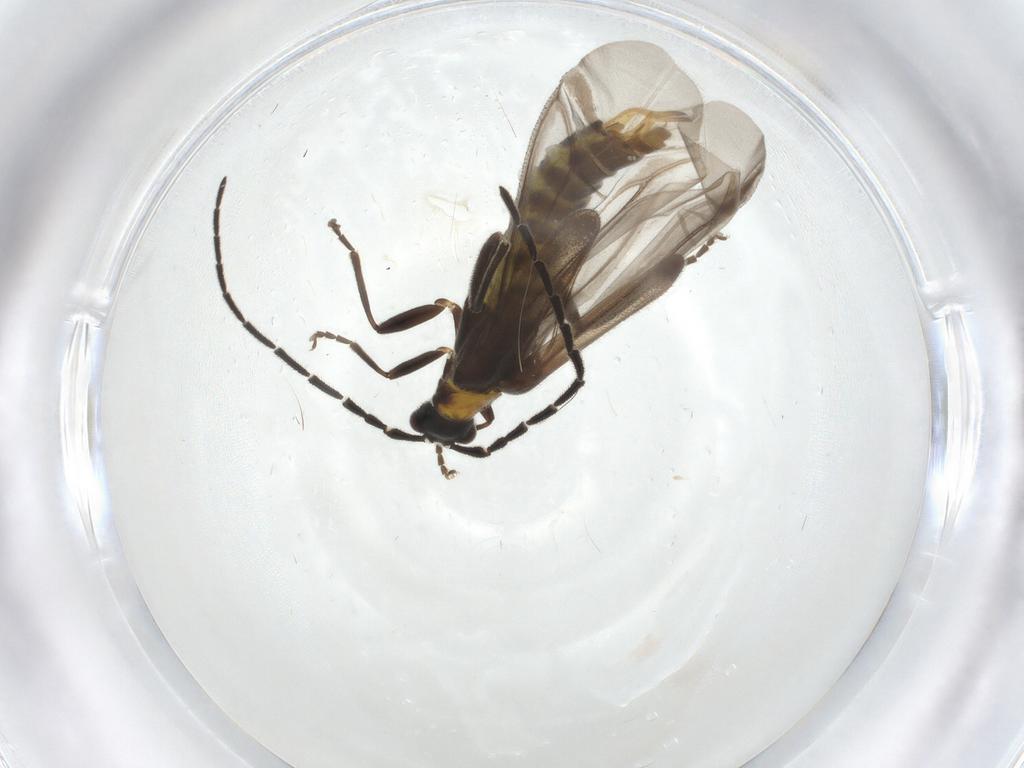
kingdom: Animalia
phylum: Arthropoda
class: Insecta
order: Coleoptera
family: Cantharidae
